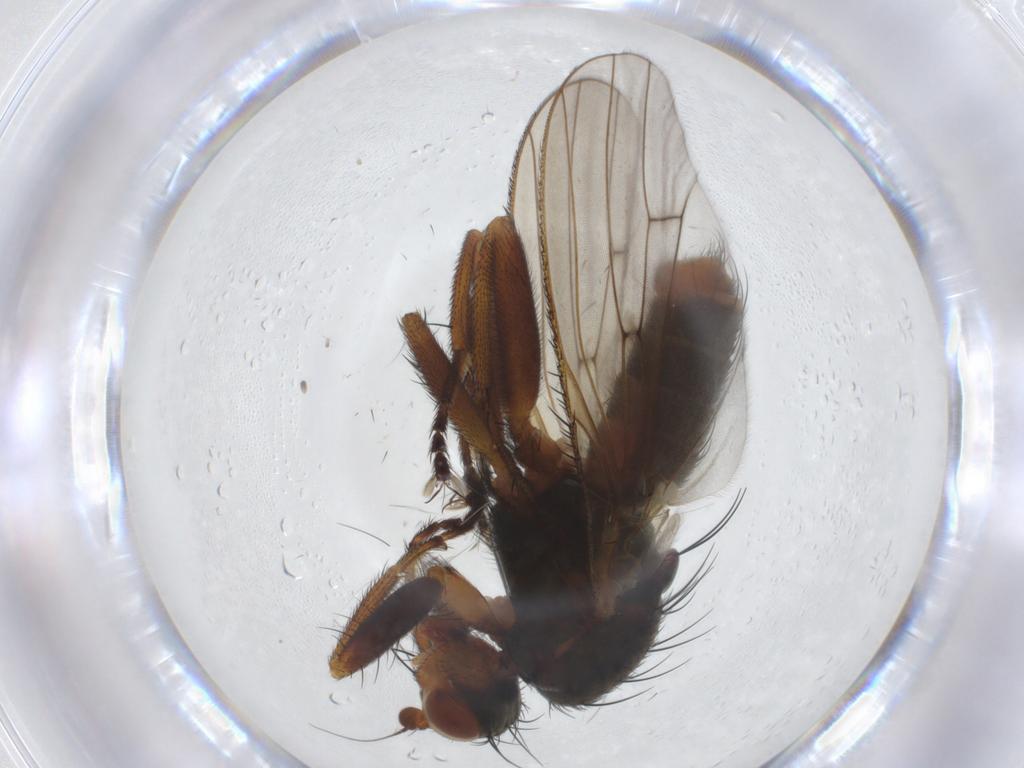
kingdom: Animalia
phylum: Arthropoda
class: Insecta
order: Diptera
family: Heleomyzidae
